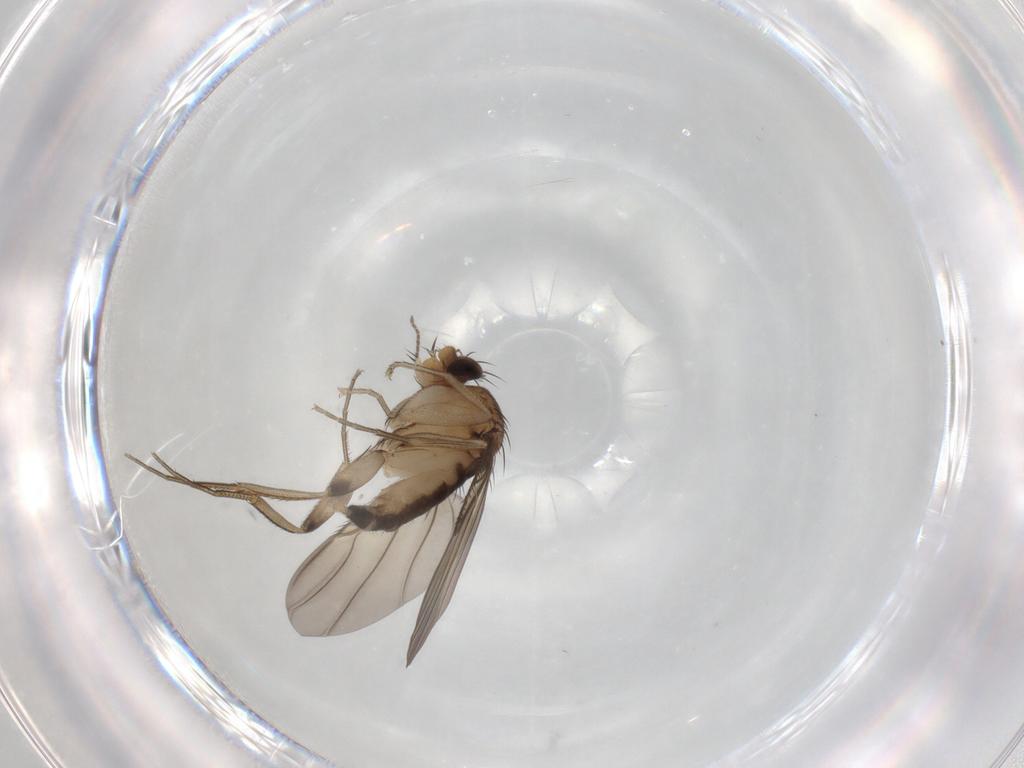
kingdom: Animalia
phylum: Arthropoda
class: Insecta
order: Diptera
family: Phoridae
